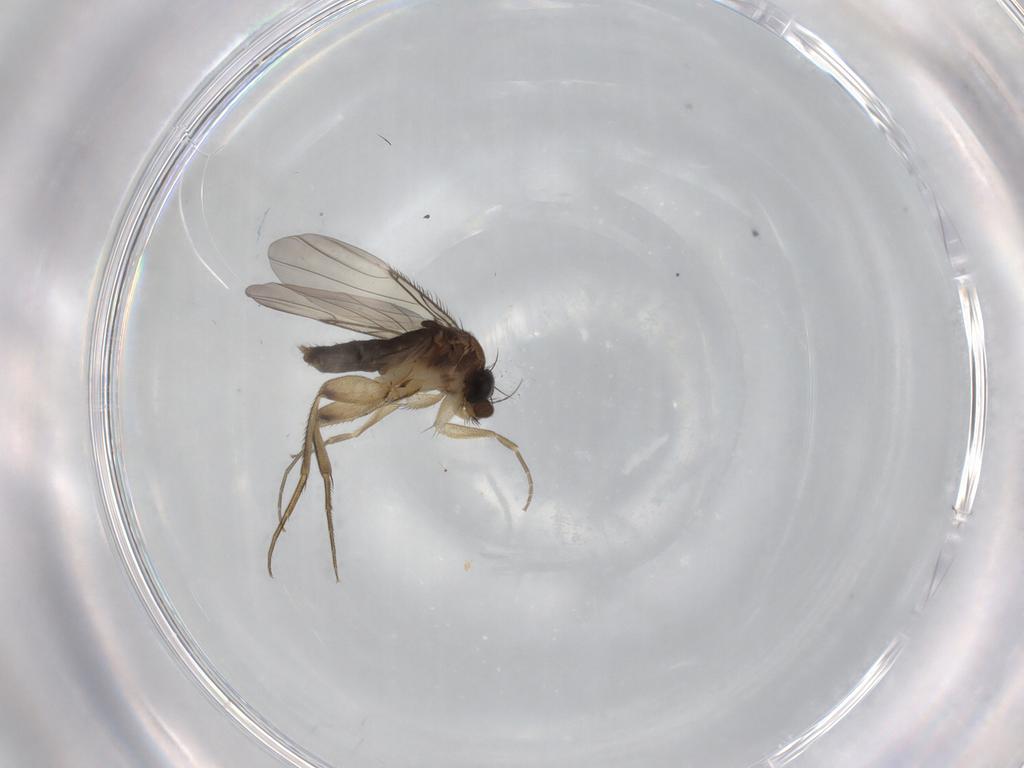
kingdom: Animalia
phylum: Arthropoda
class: Insecta
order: Diptera
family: Phoridae
